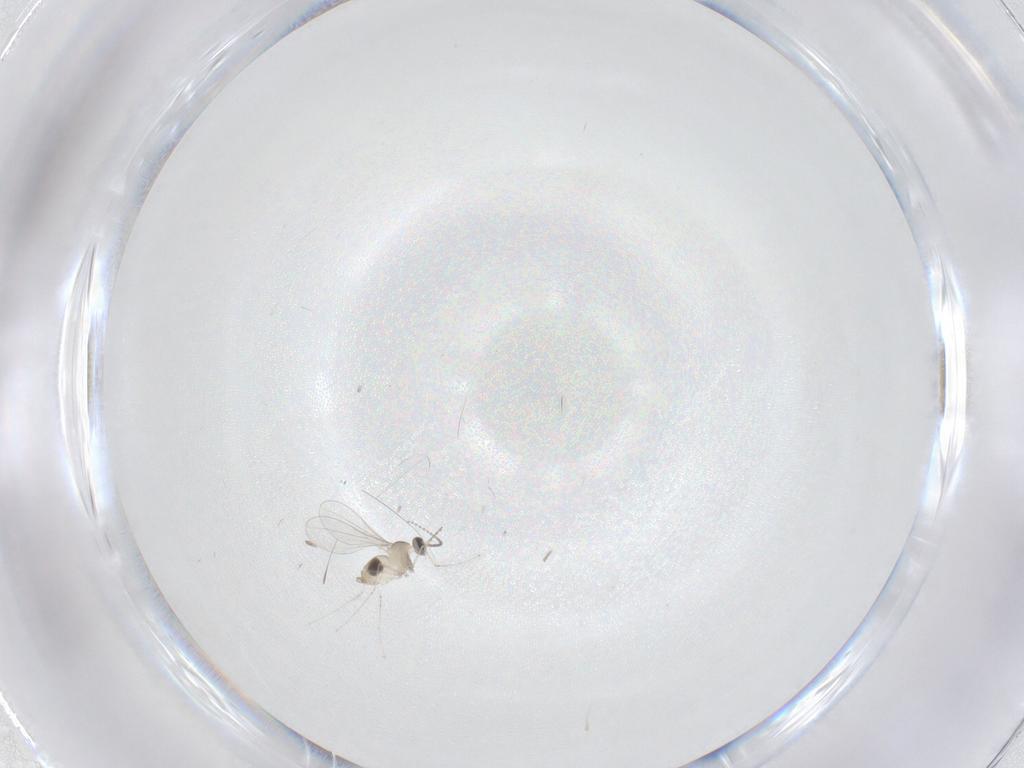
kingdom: Animalia
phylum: Arthropoda
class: Insecta
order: Diptera
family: Cecidomyiidae
